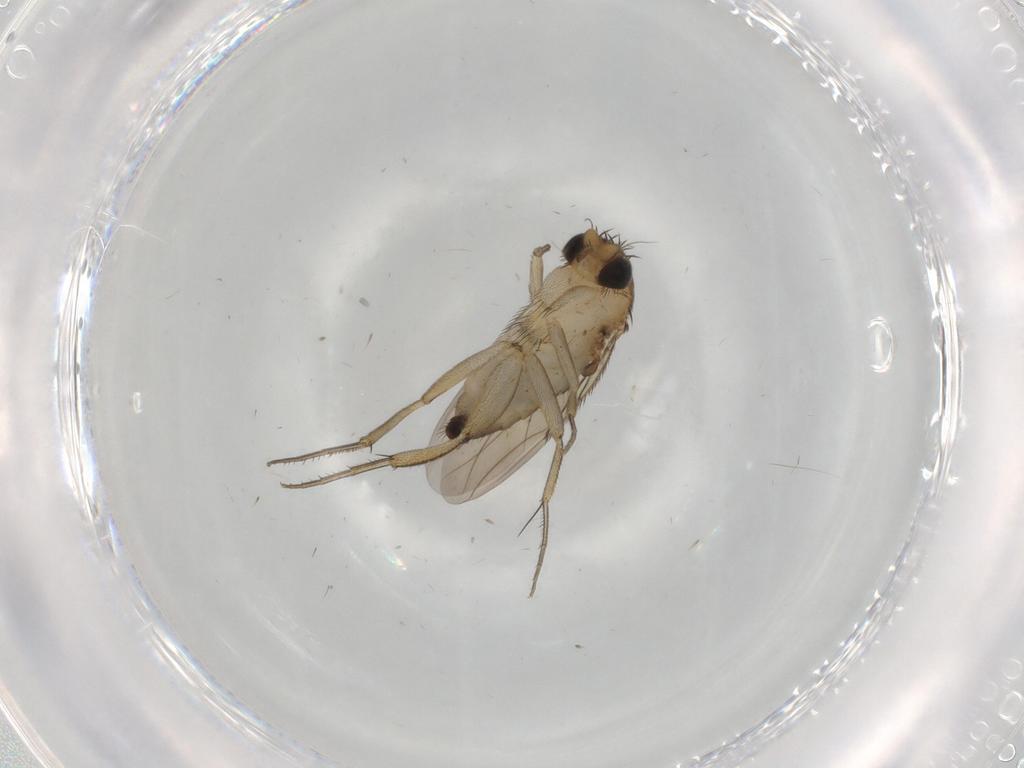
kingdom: Animalia
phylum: Arthropoda
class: Insecta
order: Diptera
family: Phoridae
